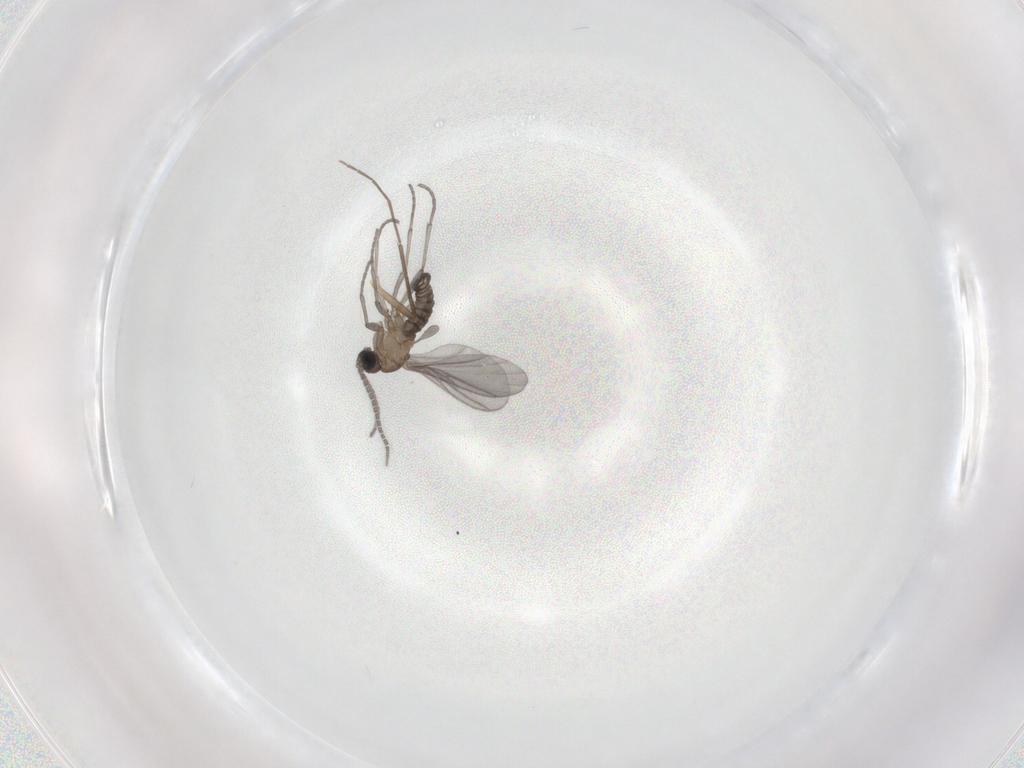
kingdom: Animalia
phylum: Arthropoda
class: Insecta
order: Diptera
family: Sciaridae
